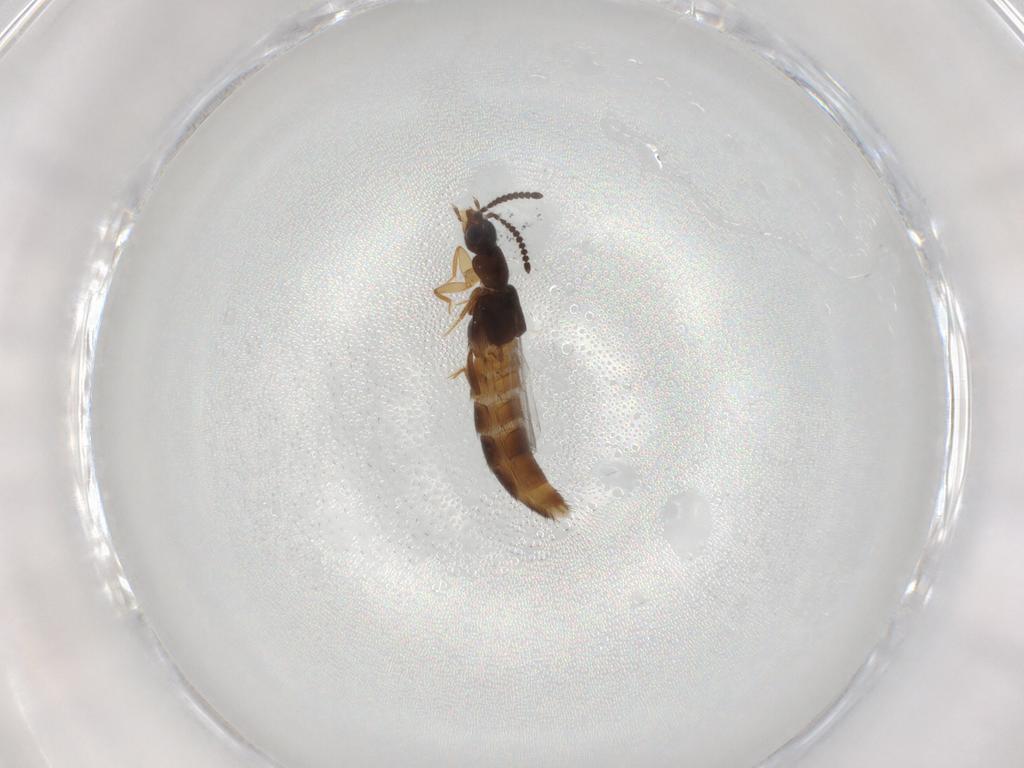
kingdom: Animalia
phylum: Arthropoda
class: Insecta
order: Coleoptera
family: Staphylinidae
